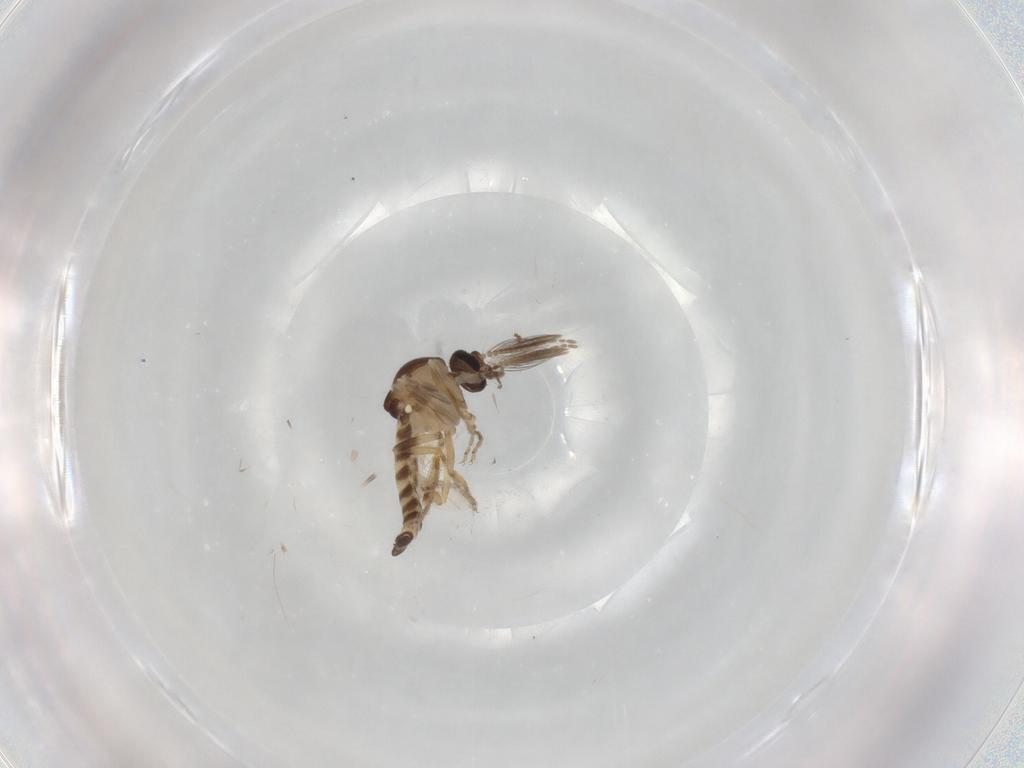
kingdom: Animalia
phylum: Arthropoda
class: Insecta
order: Diptera
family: Ceratopogonidae
